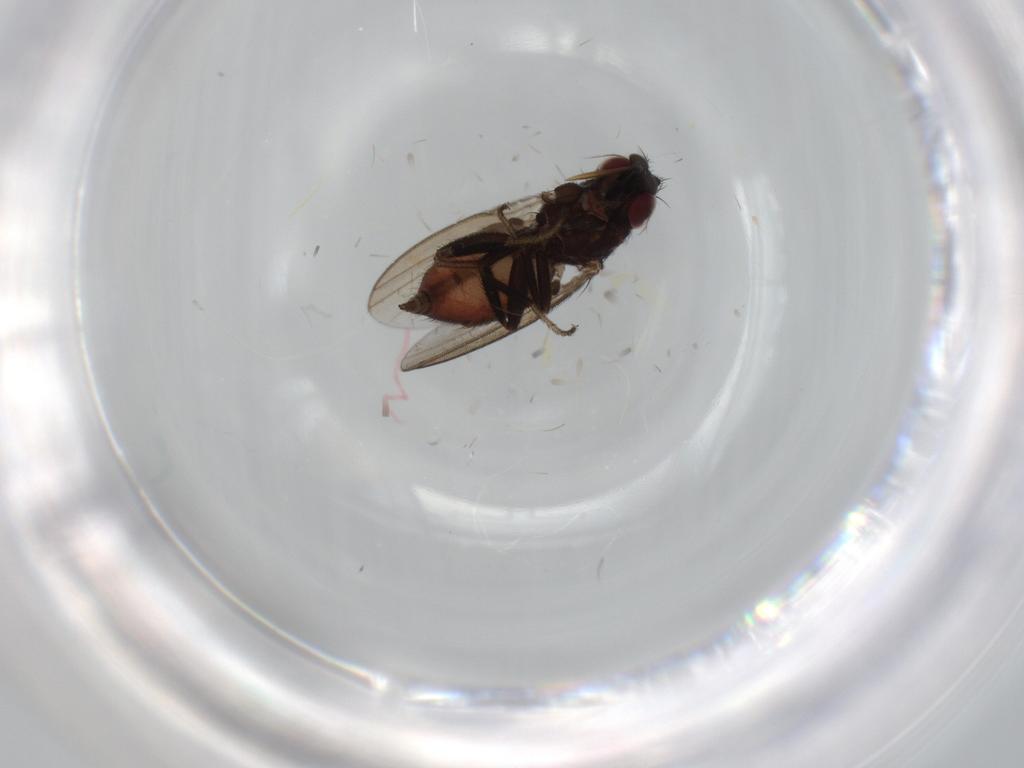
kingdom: Animalia
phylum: Arthropoda
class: Insecta
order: Diptera
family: Milichiidae
